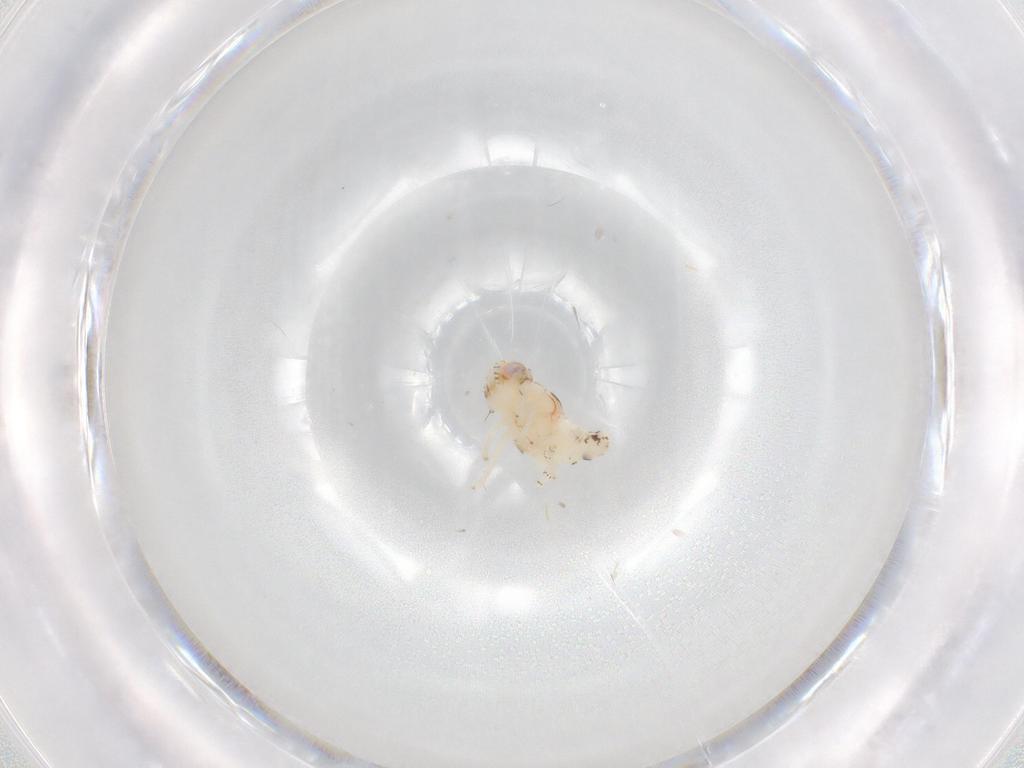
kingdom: Animalia
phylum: Arthropoda
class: Insecta
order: Hemiptera
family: Nogodinidae
